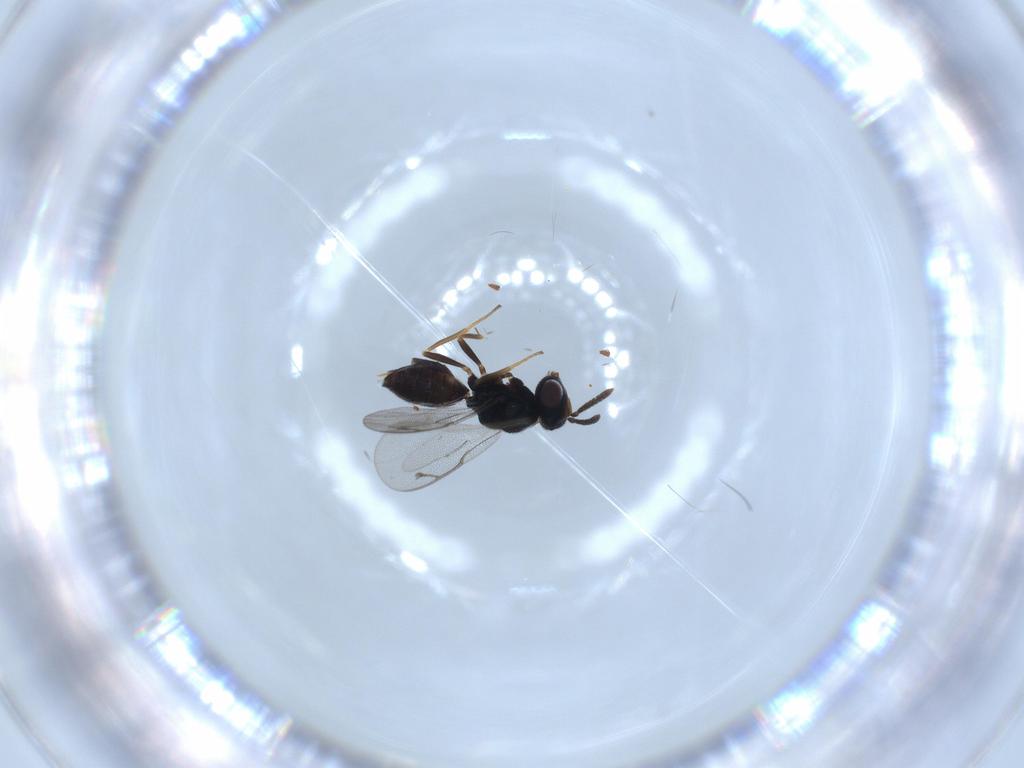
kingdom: Animalia
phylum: Arthropoda
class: Insecta
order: Hymenoptera
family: Pteromalidae
